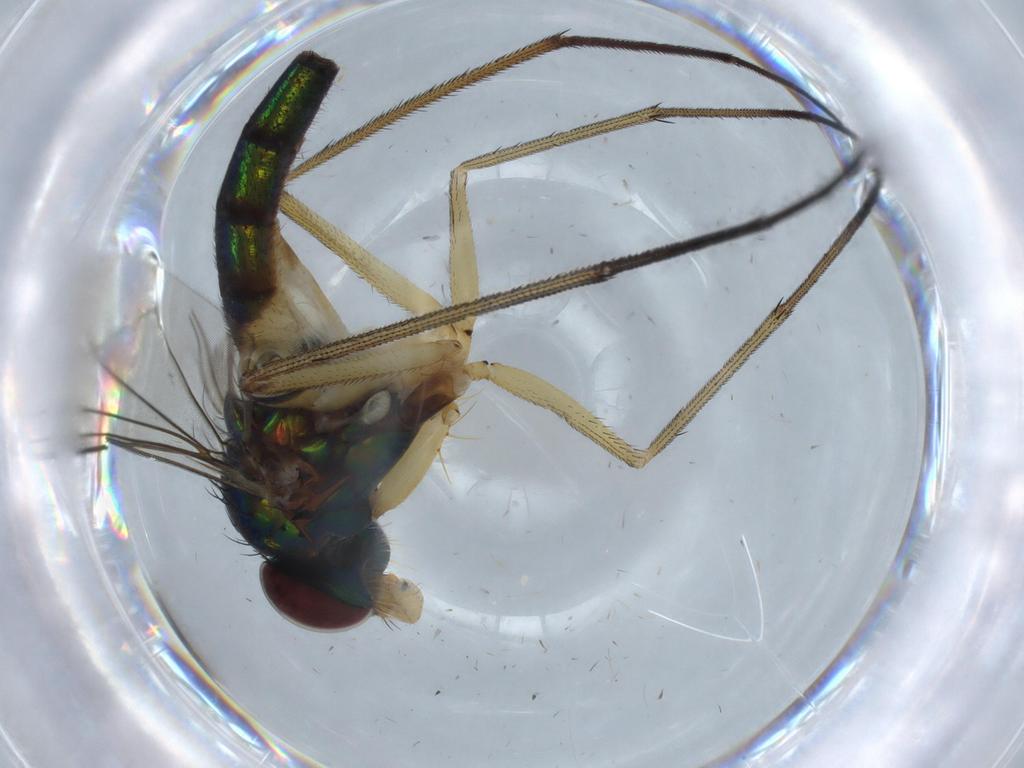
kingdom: Animalia
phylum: Arthropoda
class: Insecta
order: Diptera
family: Dolichopodidae
